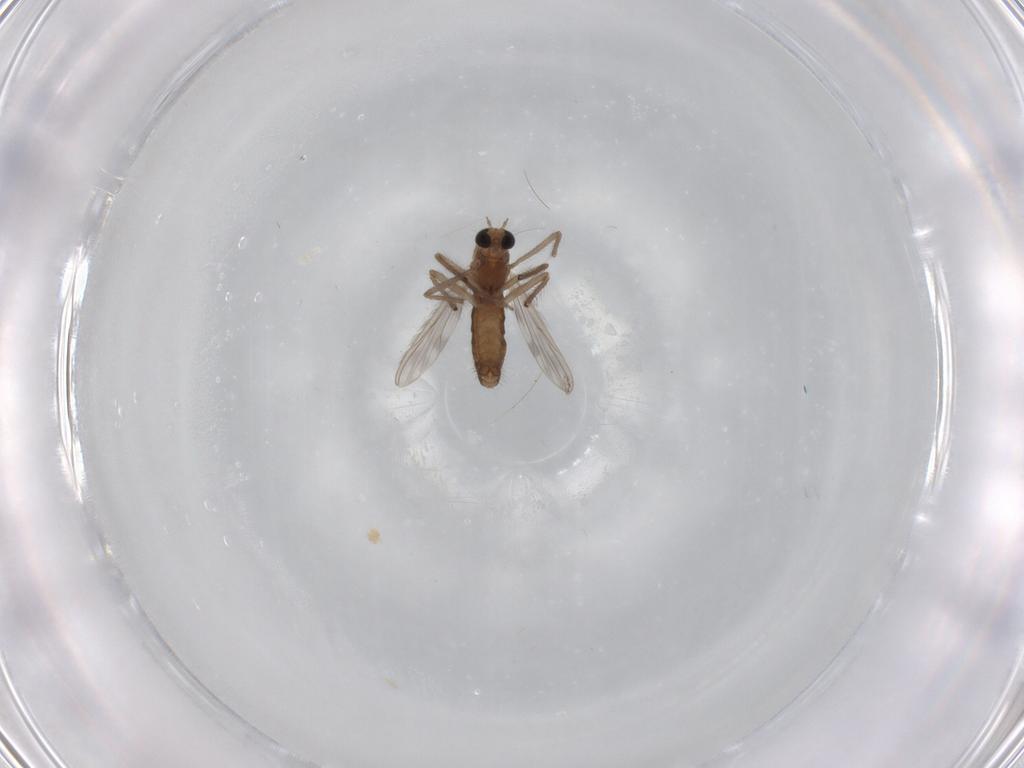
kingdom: Animalia
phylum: Arthropoda
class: Insecta
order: Diptera
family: Chironomidae
